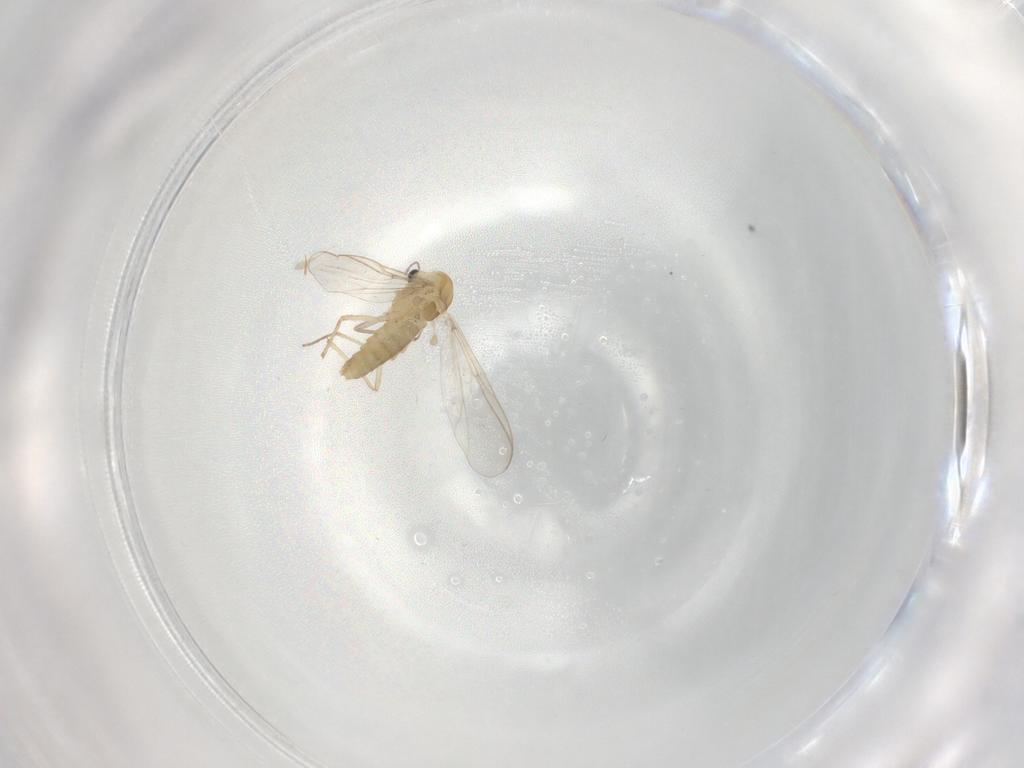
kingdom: Animalia
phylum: Arthropoda
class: Insecta
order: Diptera
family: Chironomidae
